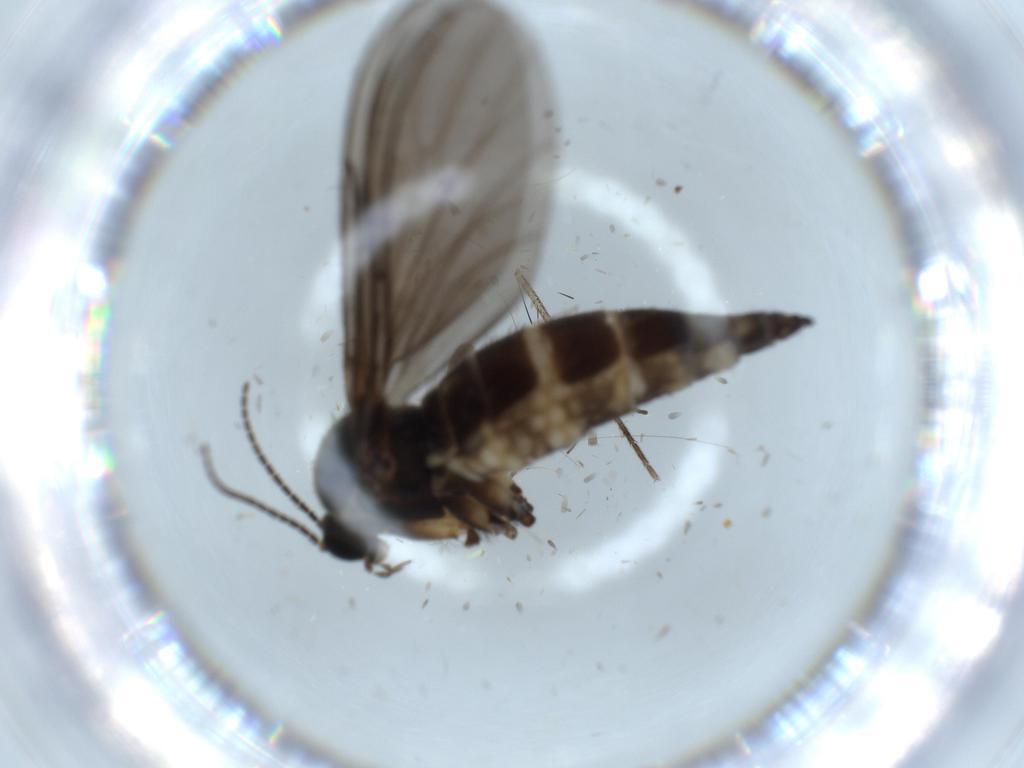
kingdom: Animalia
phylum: Arthropoda
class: Insecta
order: Diptera
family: Sciaridae
